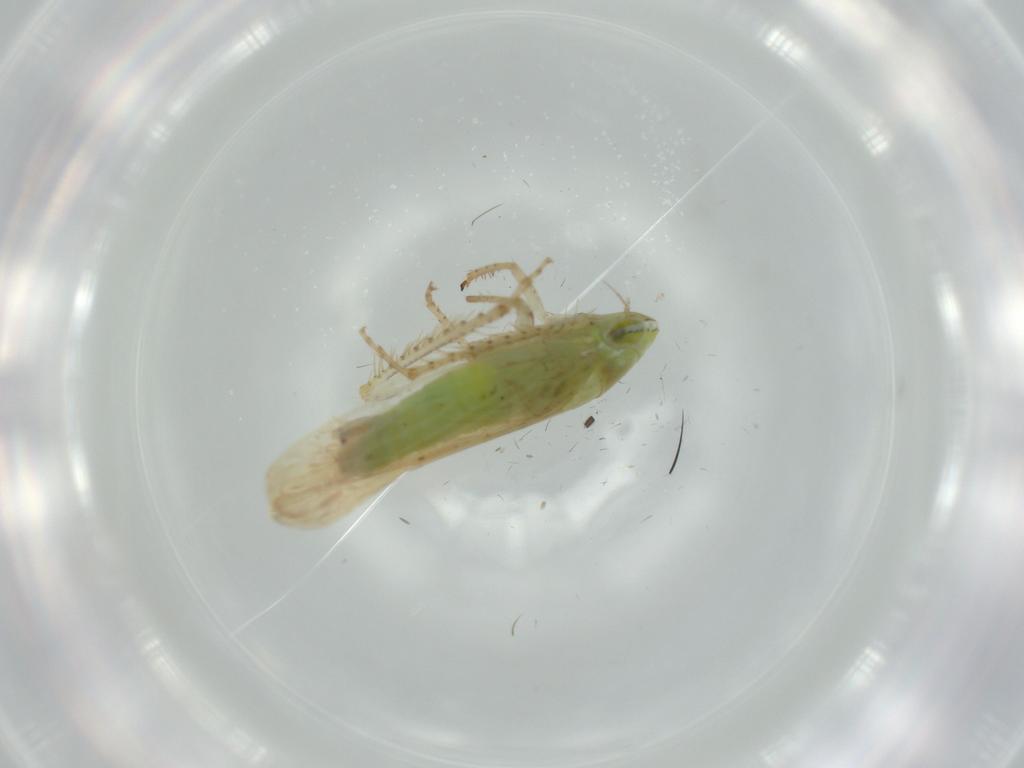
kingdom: Animalia
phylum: Arthropoda
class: Insecta
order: Hemiptera
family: Cicadellidae
